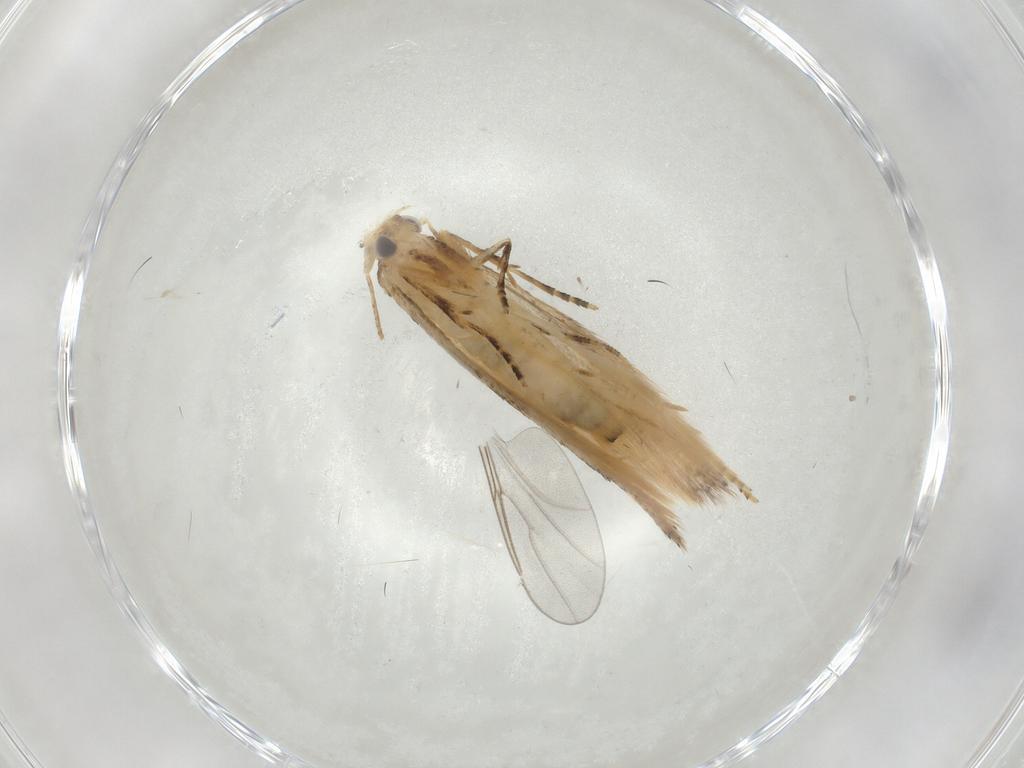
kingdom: Animalia
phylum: Arthropoda
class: Insecta
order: Lepidoptera
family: Bucculatricidae
